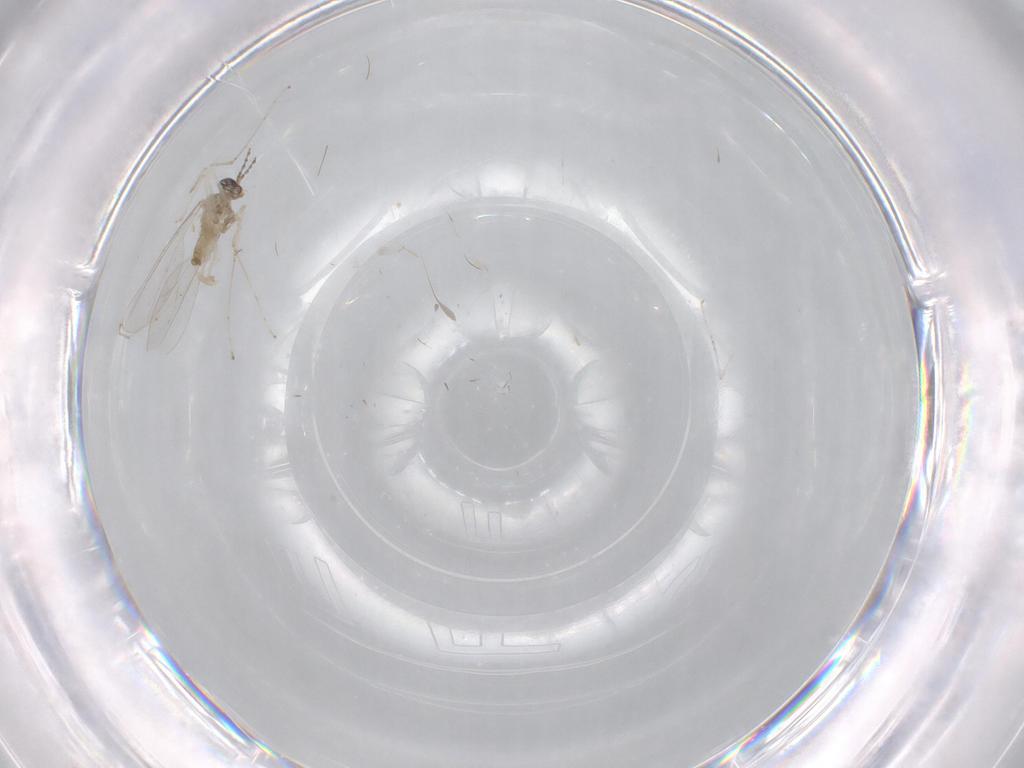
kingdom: Animalia
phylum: Arthropoda
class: Insecta
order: Diptera
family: Cecidomyiidae
